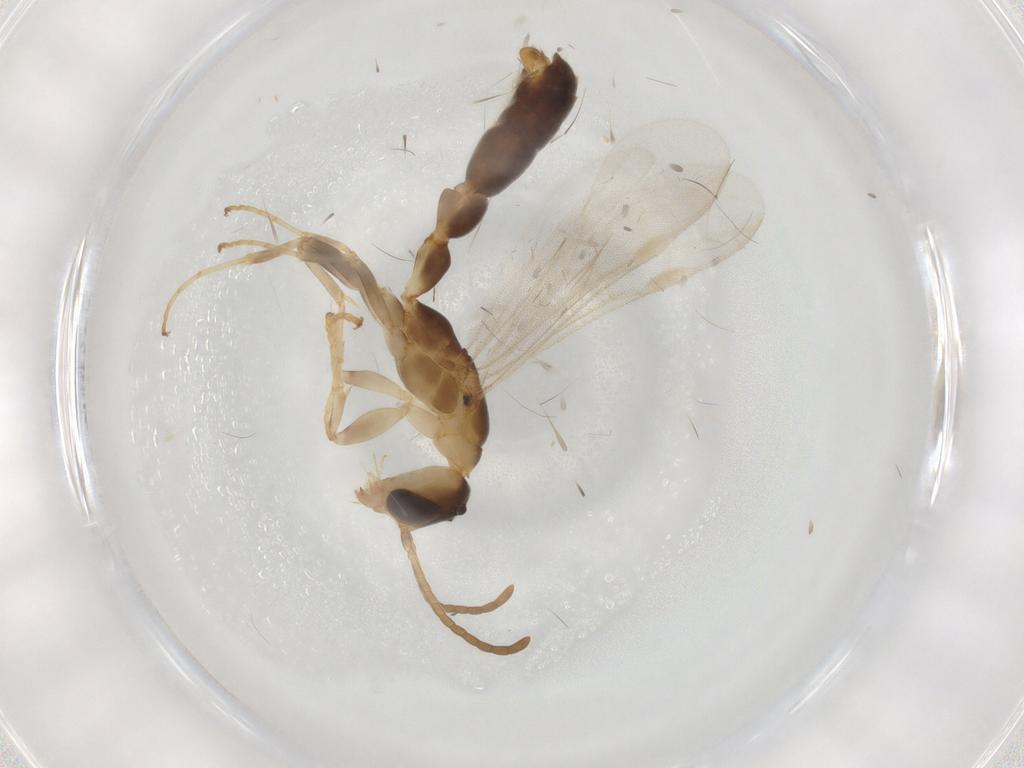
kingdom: Animalia
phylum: Arthropoda
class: Insecta
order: Hymenoptera
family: Formicidae
